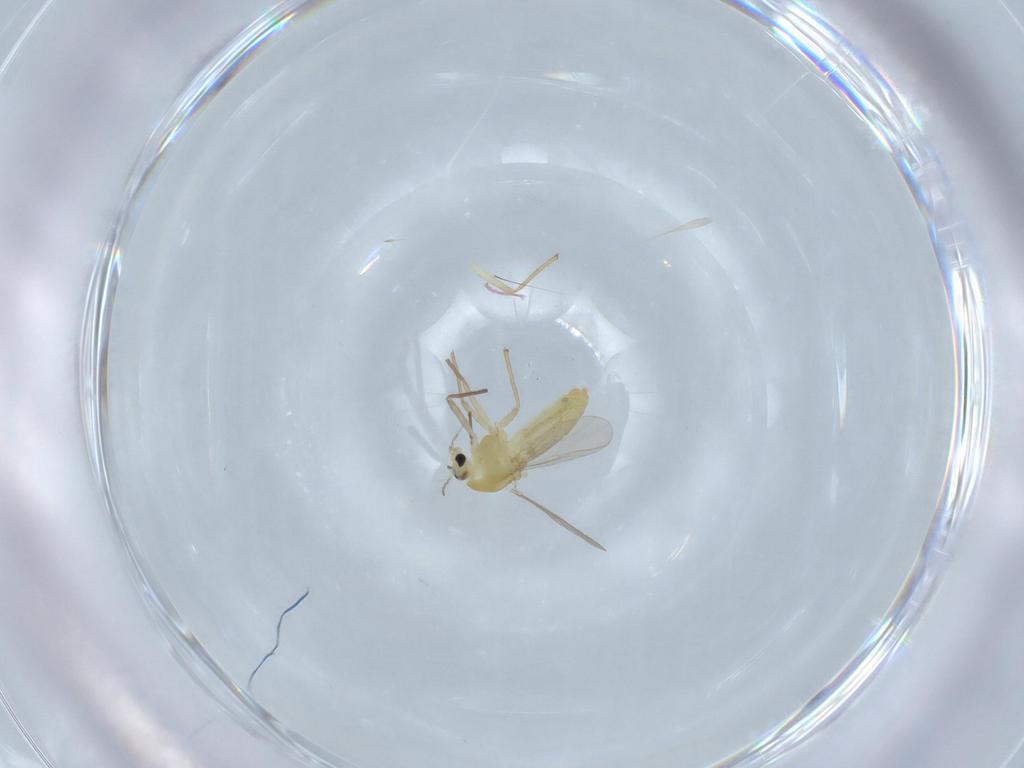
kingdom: Animalia
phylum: Arthropoda
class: Insecta
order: Diptera
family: Chironomidae
